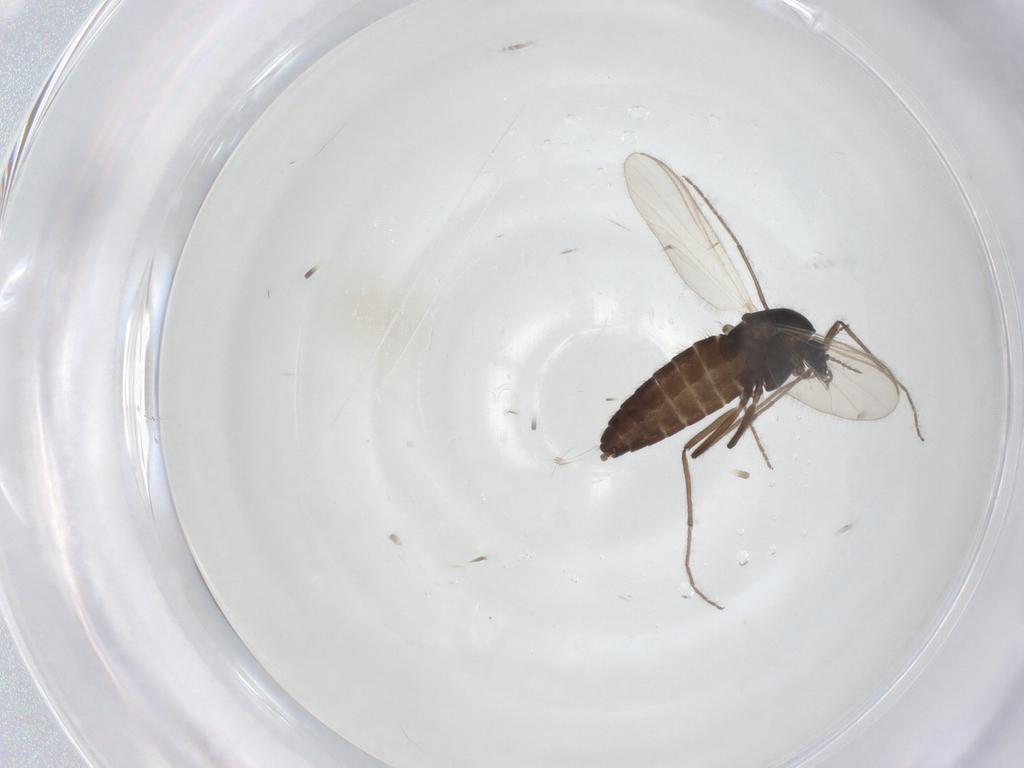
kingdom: Animalia
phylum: Arthropoda
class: Insecta
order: Diptera
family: Chironomidae
